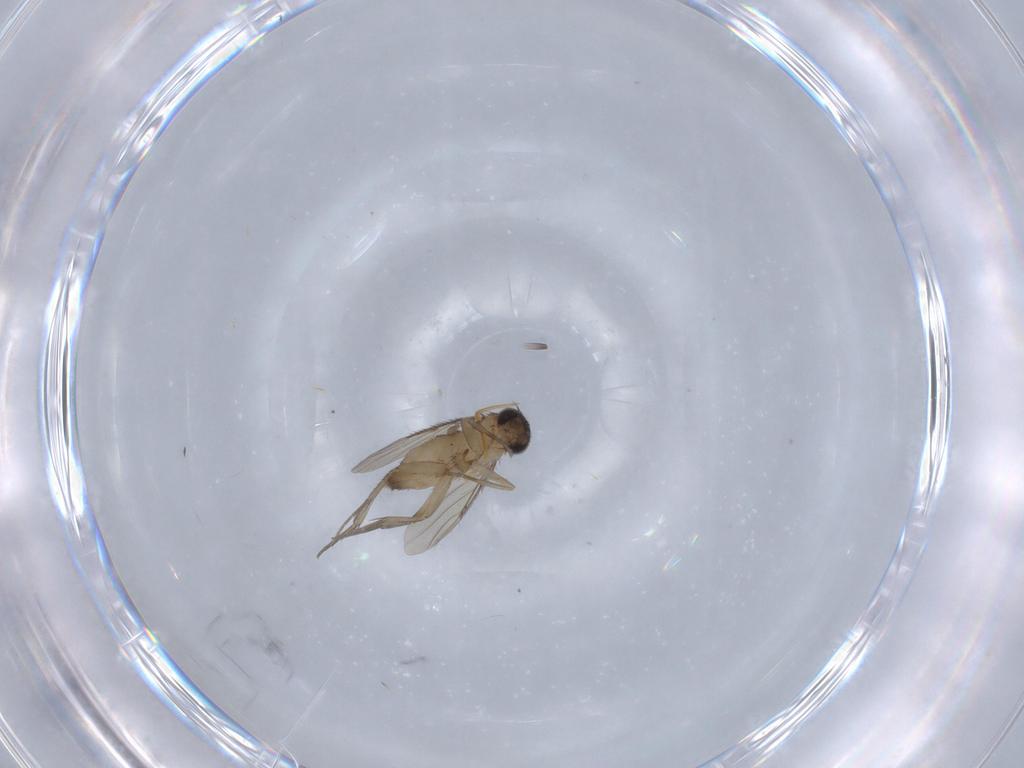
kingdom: Animalia
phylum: Arthropoda
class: Insecta
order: Diptera
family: Phoridae
